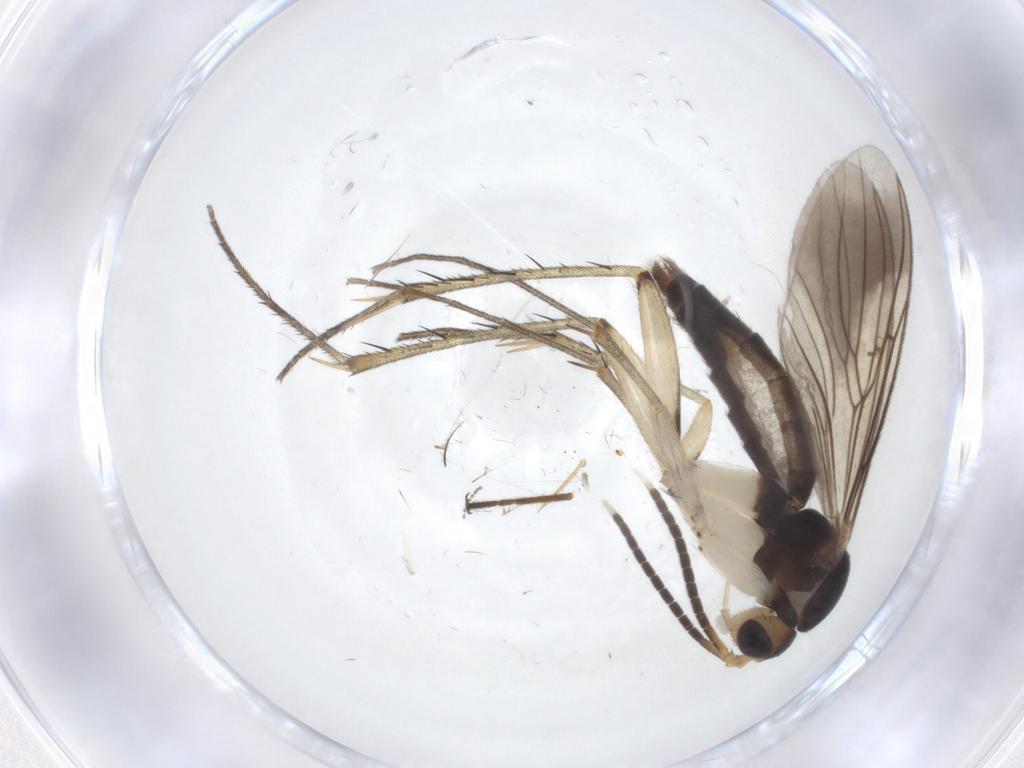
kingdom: Animalia
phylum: Arthropoda
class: Insecta
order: Diptera
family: Mycetophilidae
